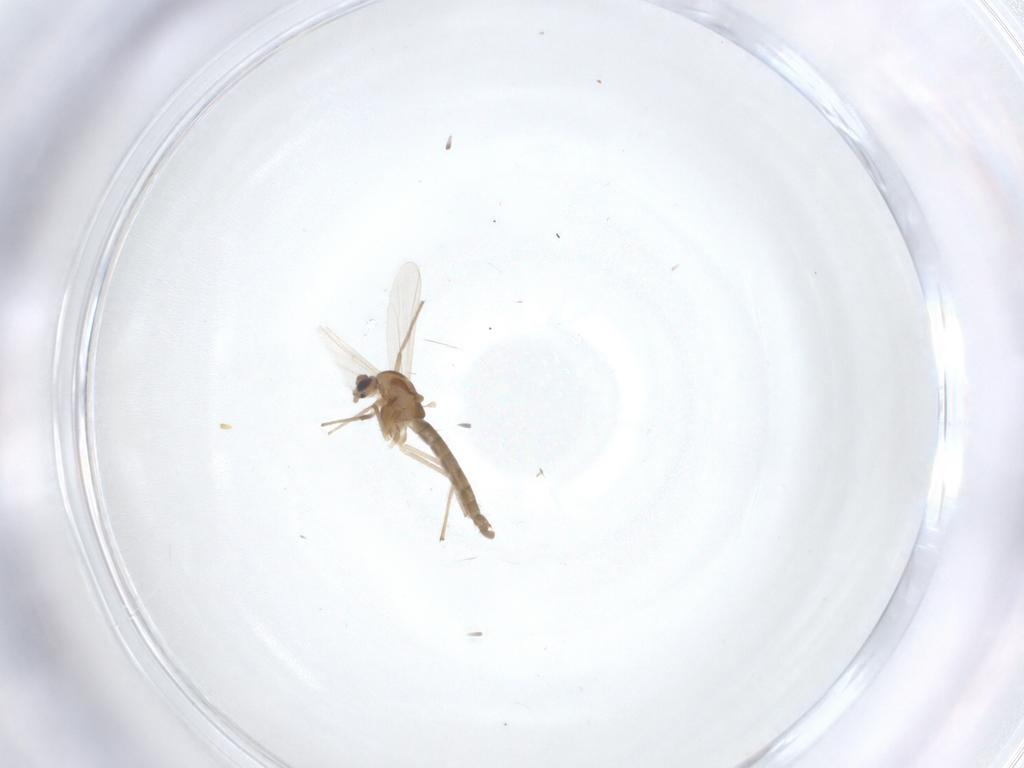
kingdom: Animalia
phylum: Arthropoda
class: Insecta
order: Diptera
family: Chironomidae
